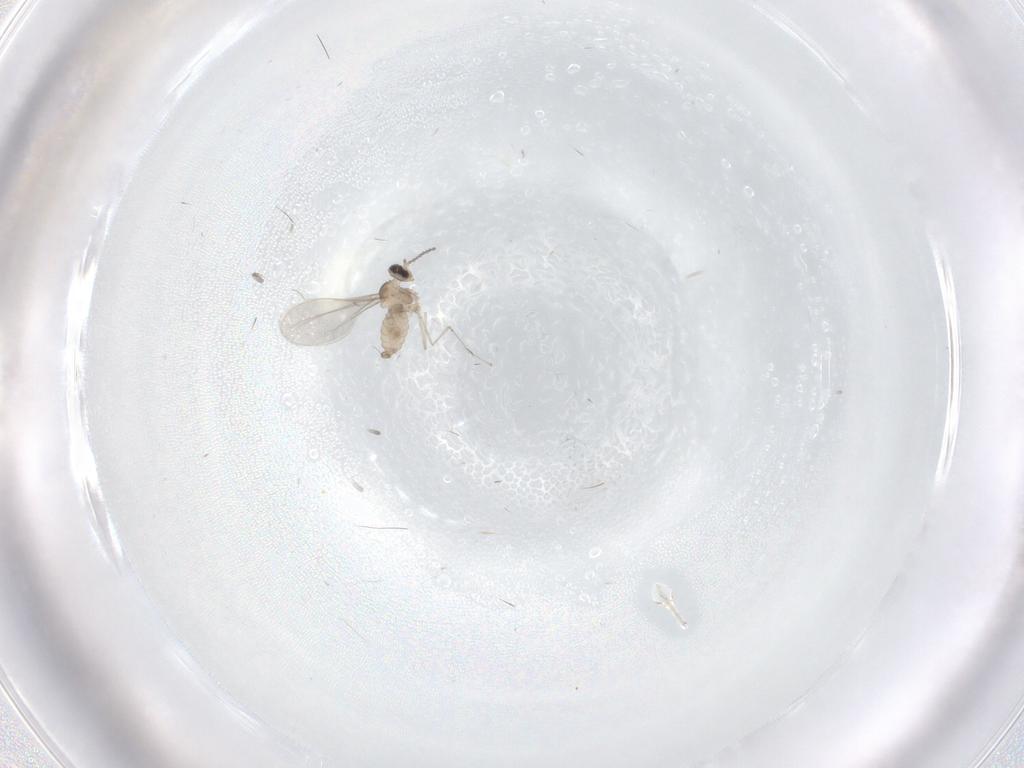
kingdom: Animalia
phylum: Arthropoda
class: Insecta
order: Diptera
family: Cecidomyiidae
